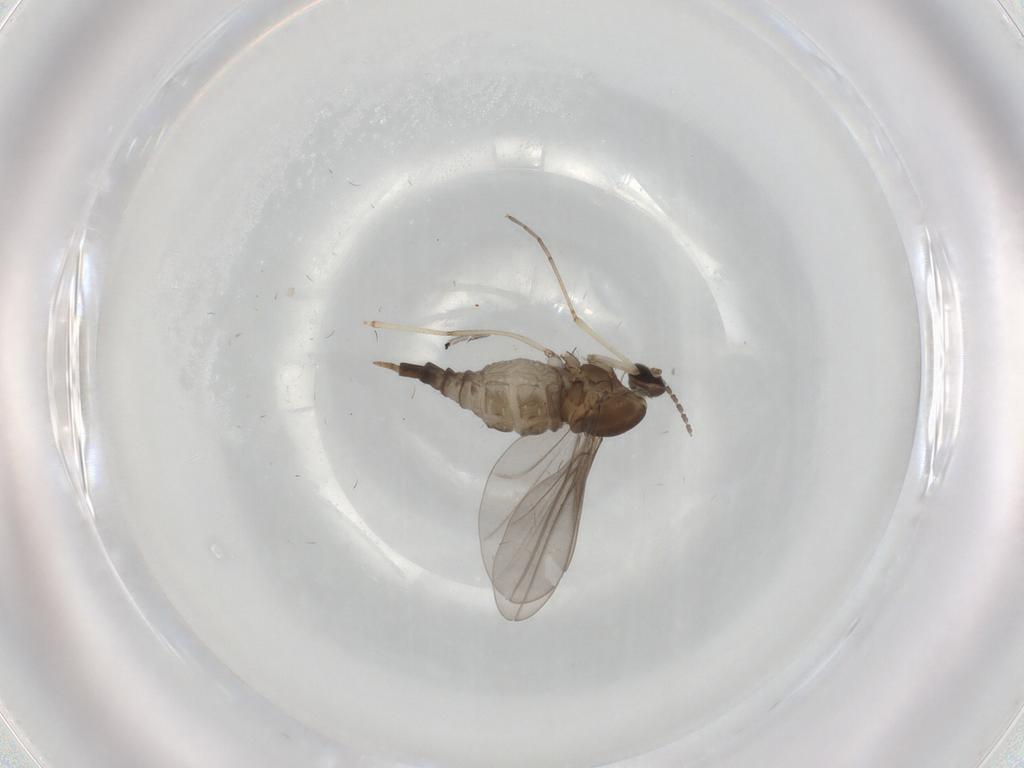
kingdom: Animalia
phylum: Arthropoda
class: Insecta
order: Diptera
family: Cecidomyiidae
